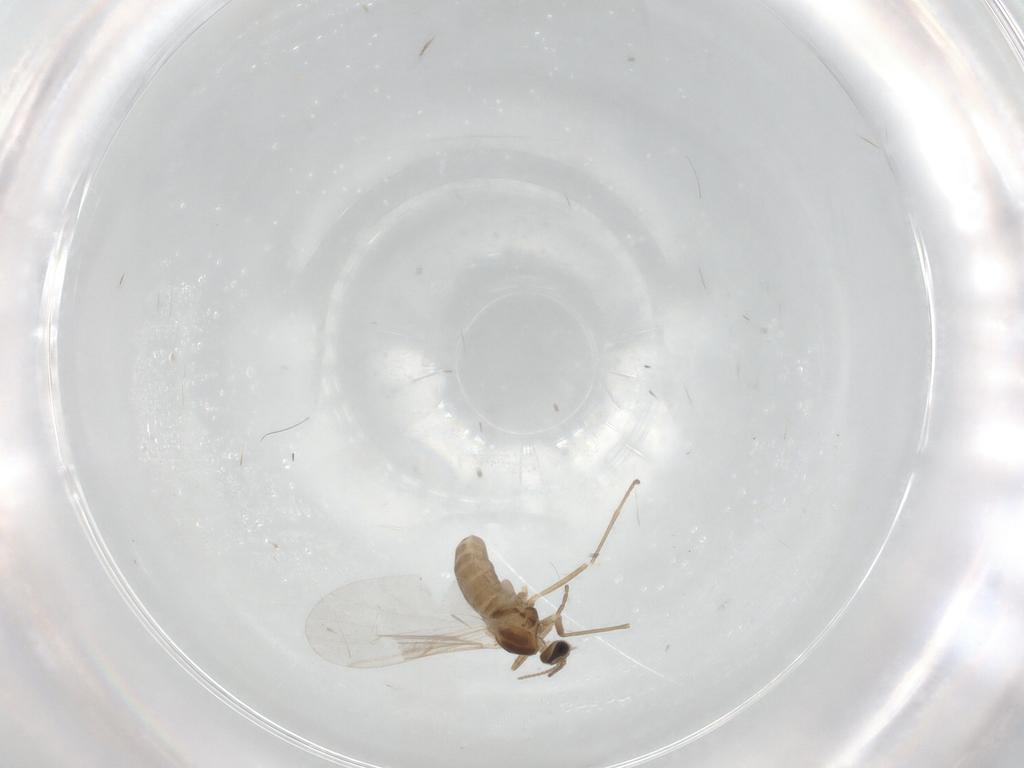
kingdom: Animalia
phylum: Arthropoda
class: Insecta
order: Diptera
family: Cecidomyiidae
